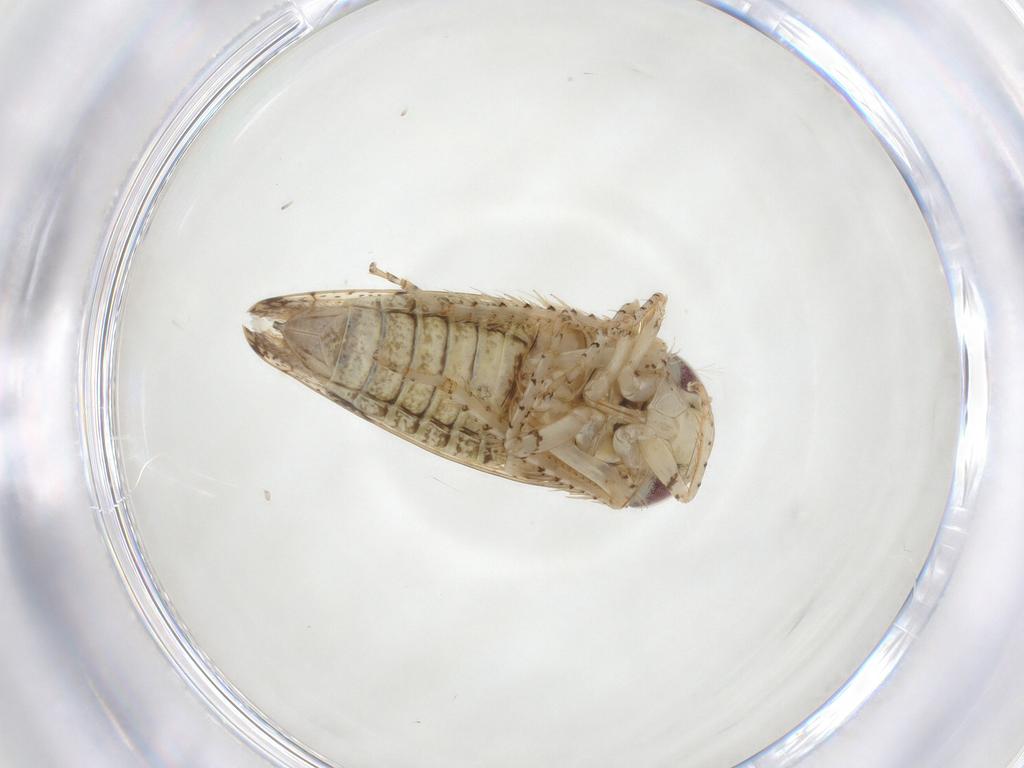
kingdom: Animalia
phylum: Arthropoda
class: Insecta
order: Hemiptera
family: Cicadellidae
